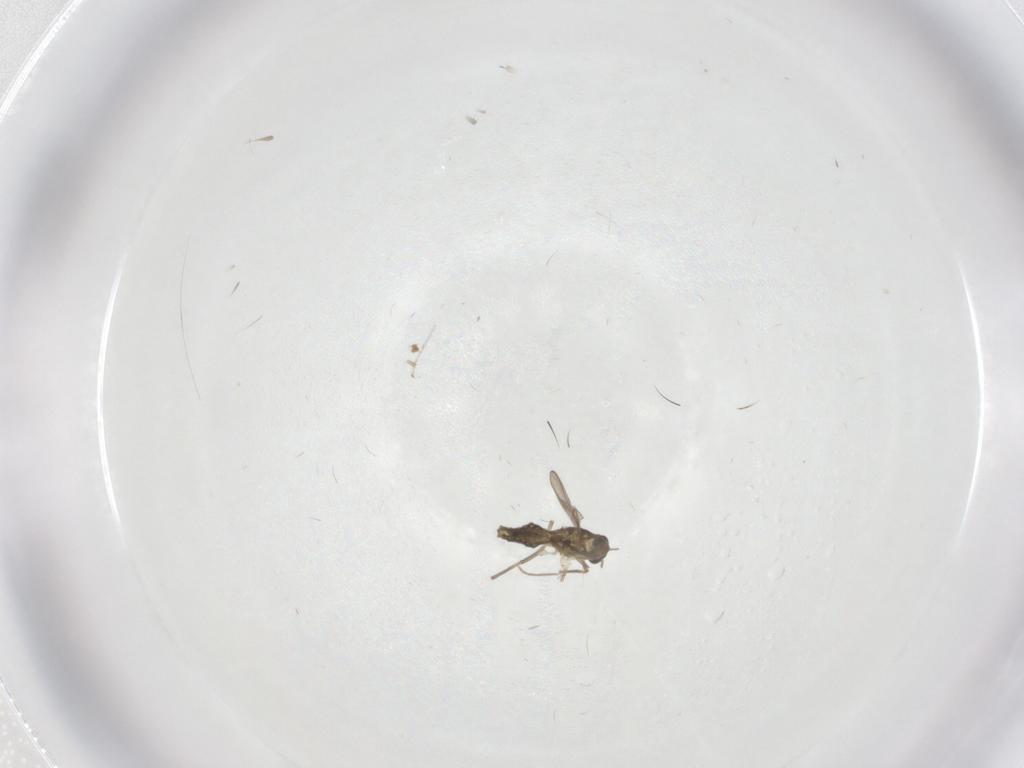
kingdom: Animalia
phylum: Arthropoda
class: Insecta
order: Diptera
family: Chironomidae
